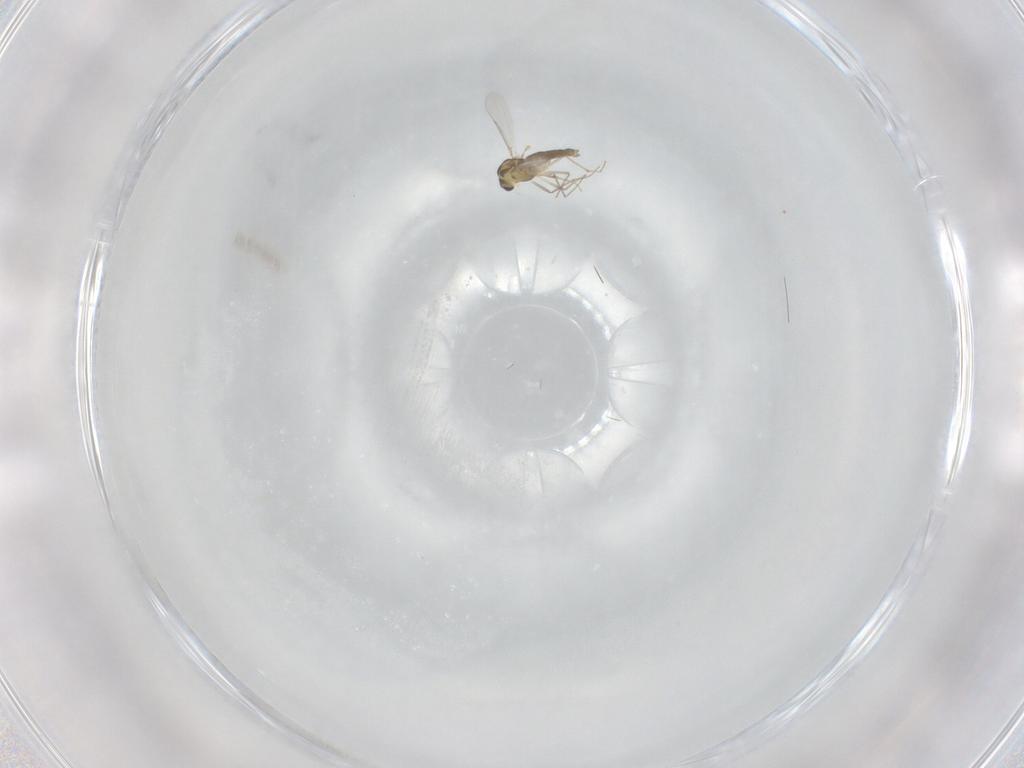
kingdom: Animalia
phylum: Arthropoda
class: Insecta
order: Diptera
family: Chironomidae
